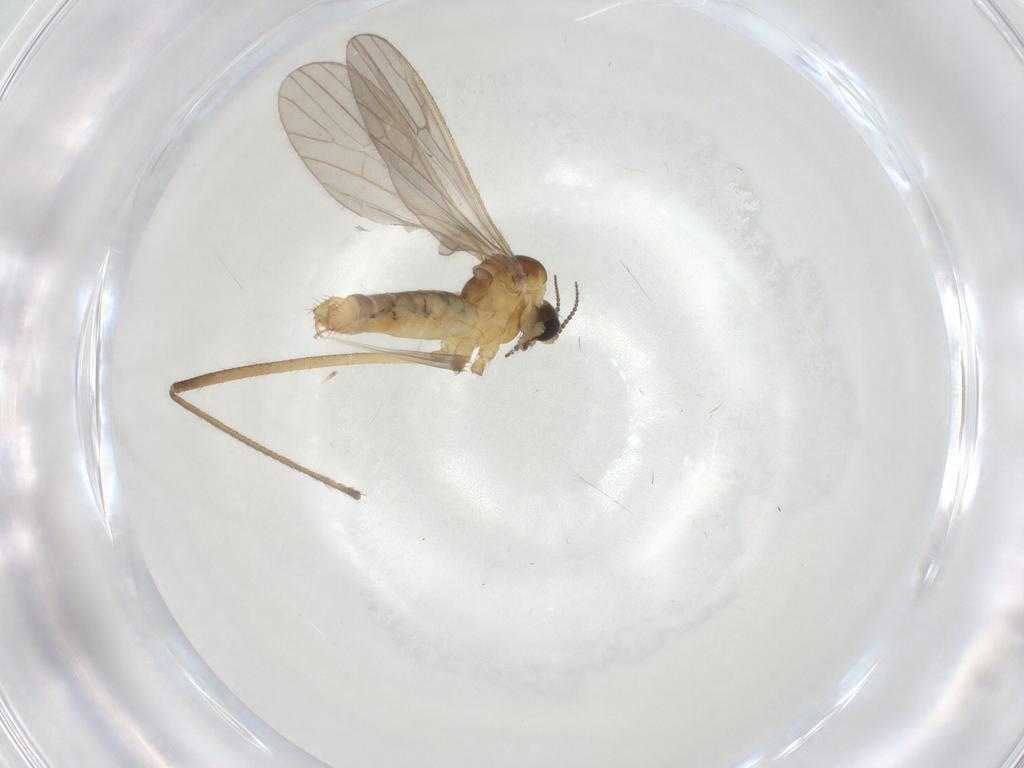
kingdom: Animalia
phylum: Arthropoda
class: Insecta
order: Diptera
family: Limoniidae
